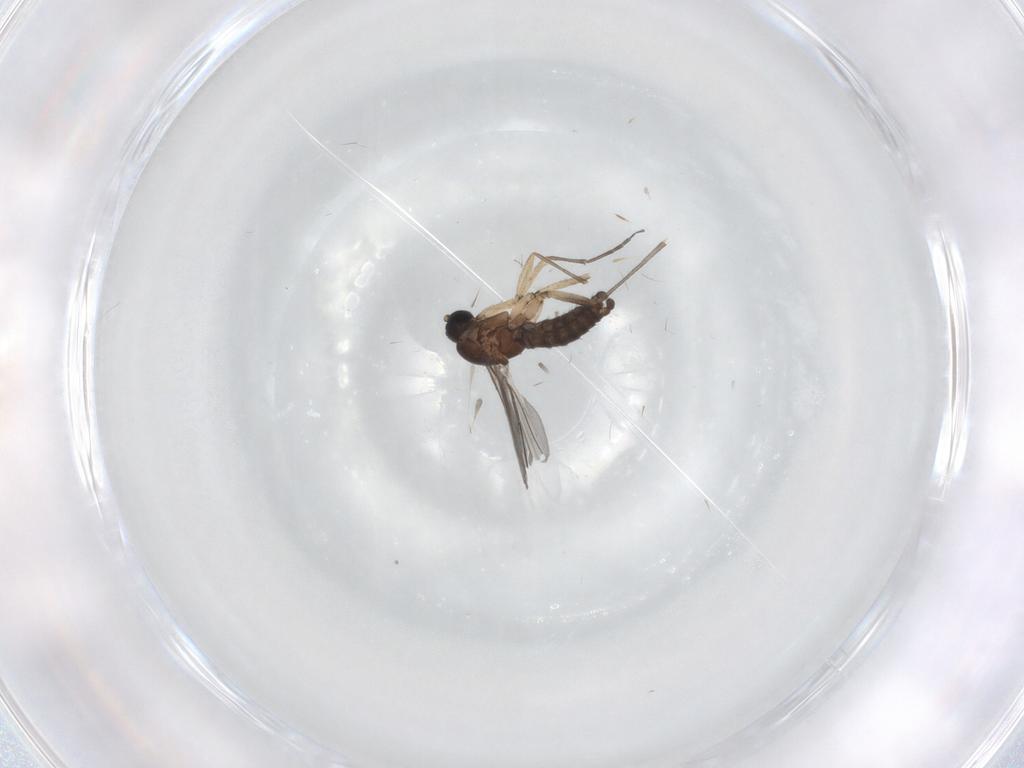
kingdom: Animalia
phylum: Arthropoda
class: Insecta
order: Diptera
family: Sciaridae
